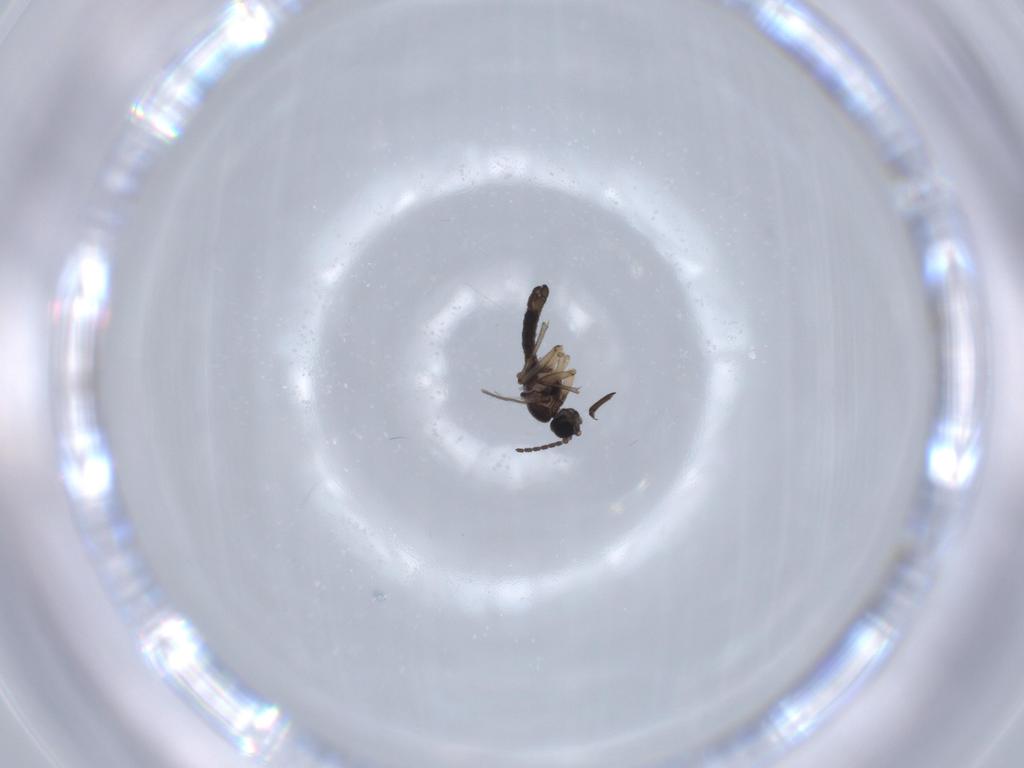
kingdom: Animalia
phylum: Arthropoda
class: Insecta
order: Diptera
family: Sciaridae
